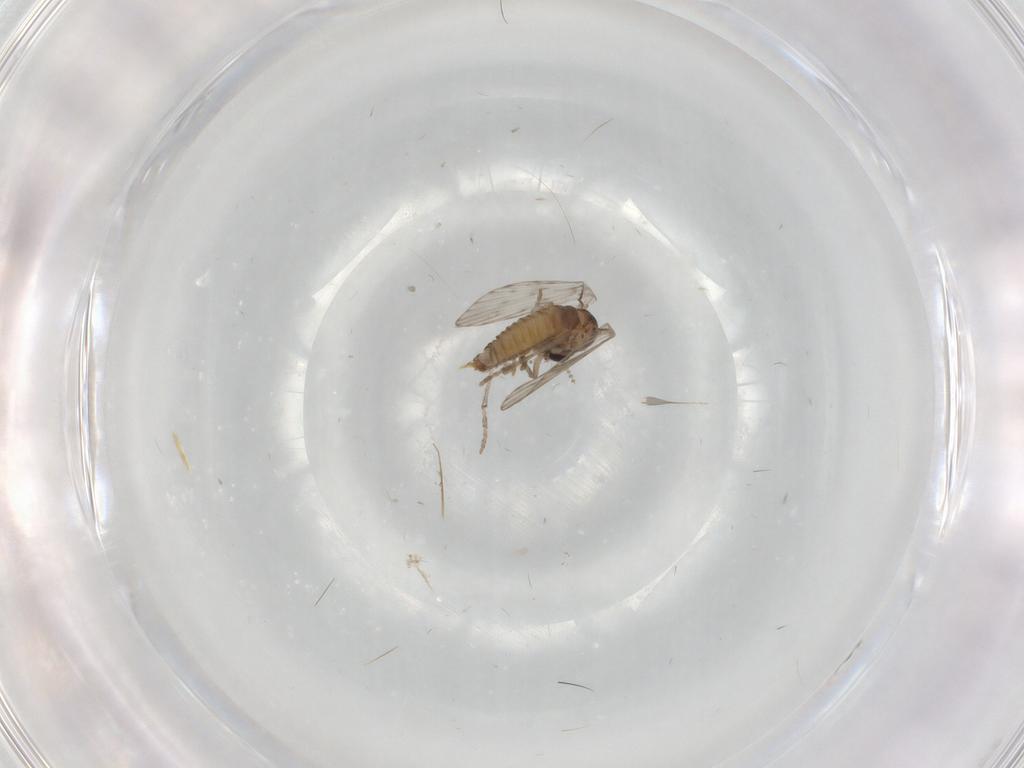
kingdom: Animalia
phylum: Arthropoda
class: Insecta
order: Diptera
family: Psychodidae
